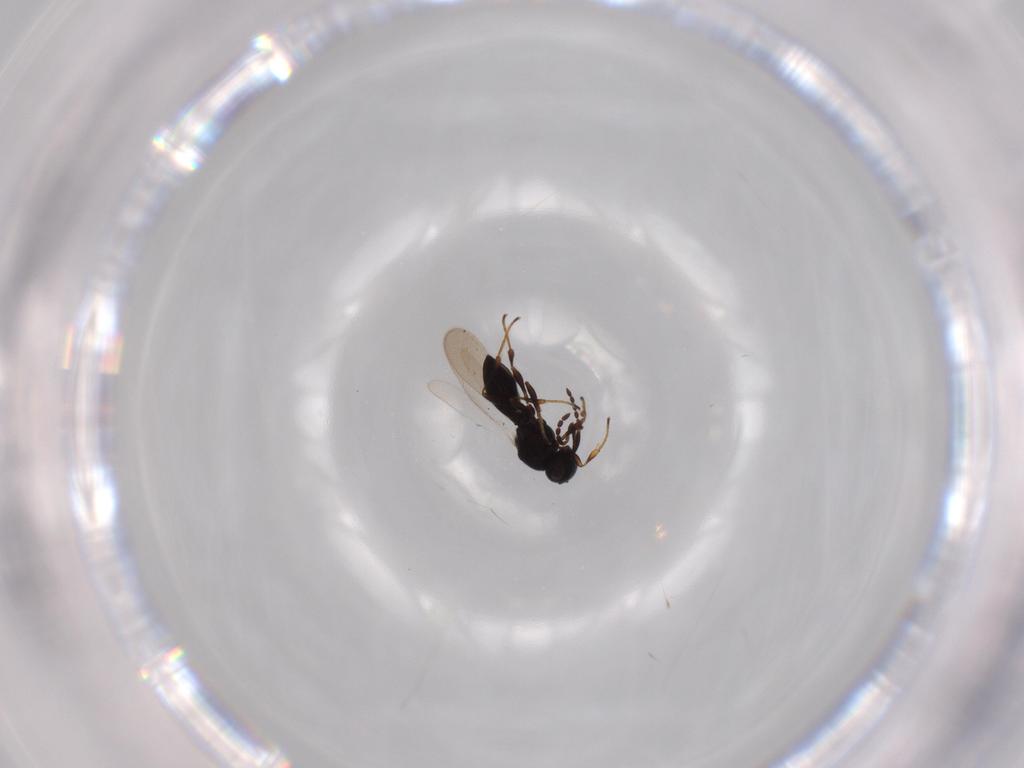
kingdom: Animalia
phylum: Arthropoda
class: Insecta
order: Hymenoptera
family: Platygastridae
